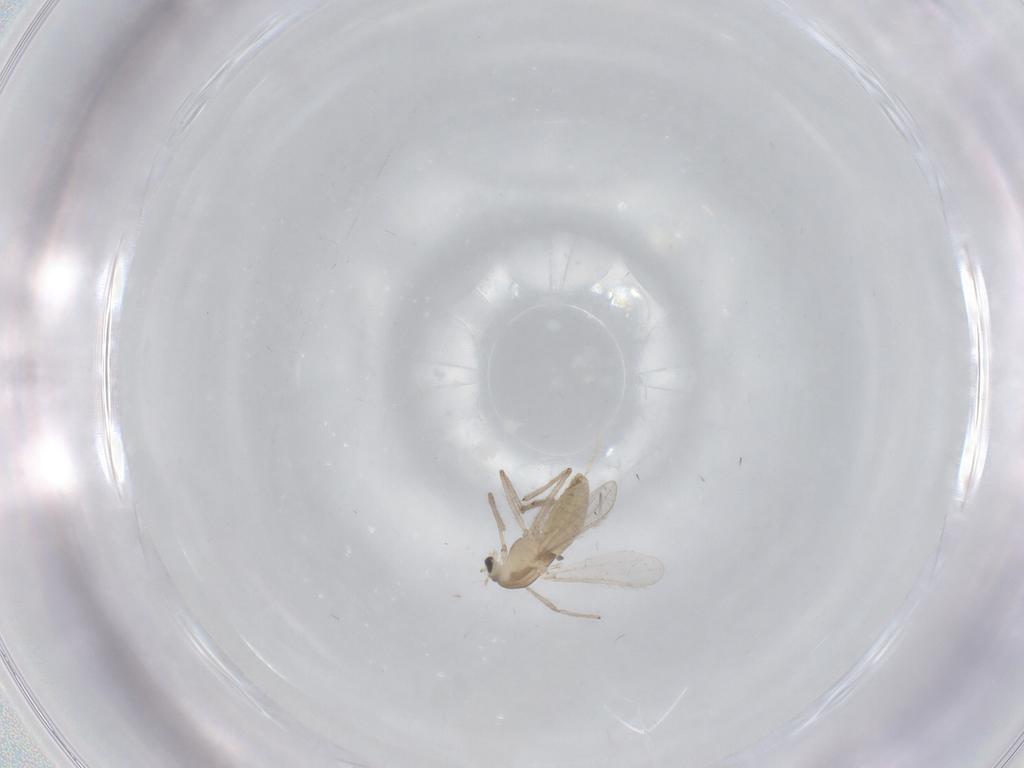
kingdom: Animalia
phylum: Arthropoda
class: Insecta
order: Diptera
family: Chironomidae
